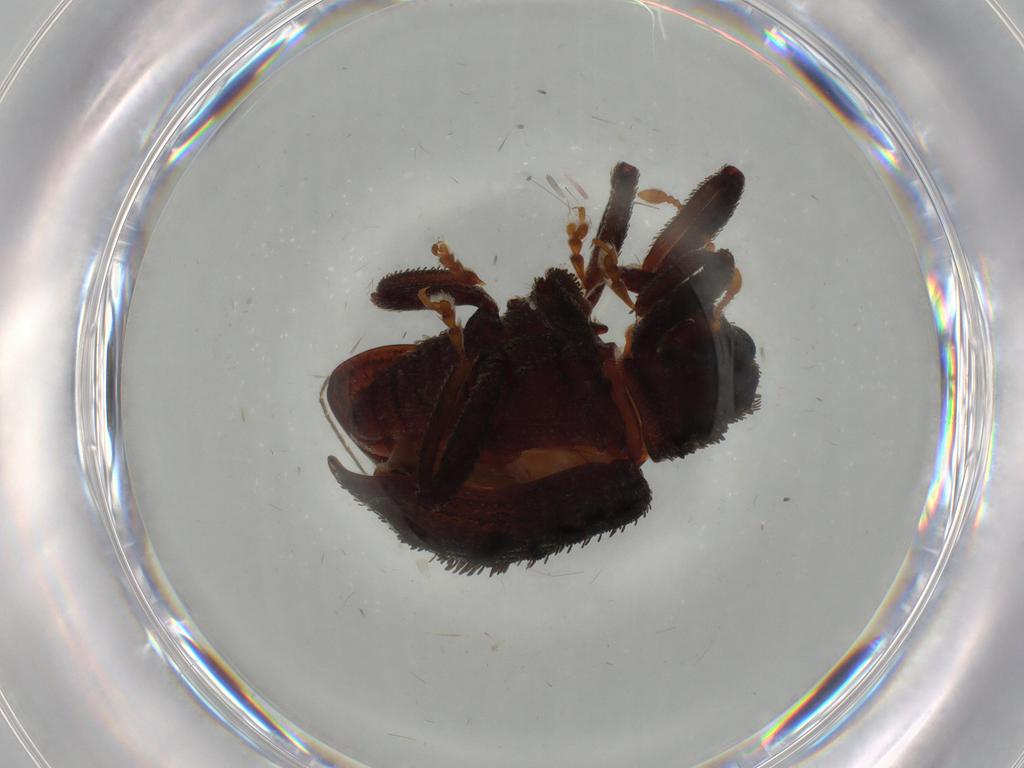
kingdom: Animalia
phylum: Arthropoda
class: Insecta
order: Coleoptera
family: Curculionidae
